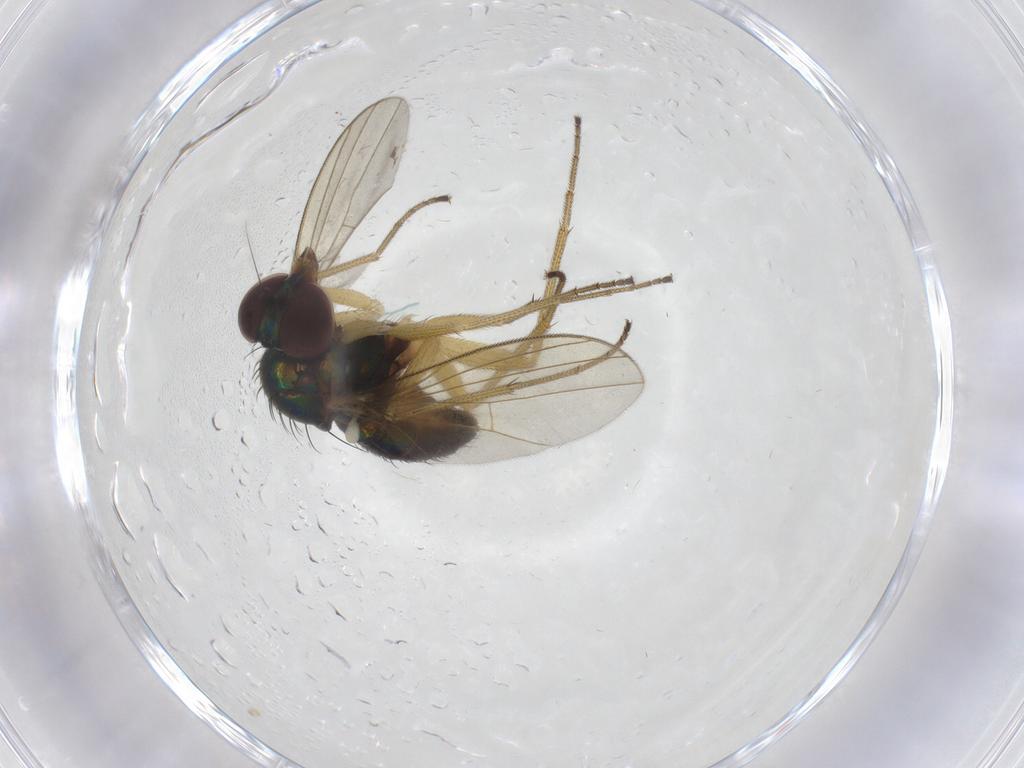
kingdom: Animalia
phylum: Arthropoda
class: Insecta
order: Diptera
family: Dolichopodidae
